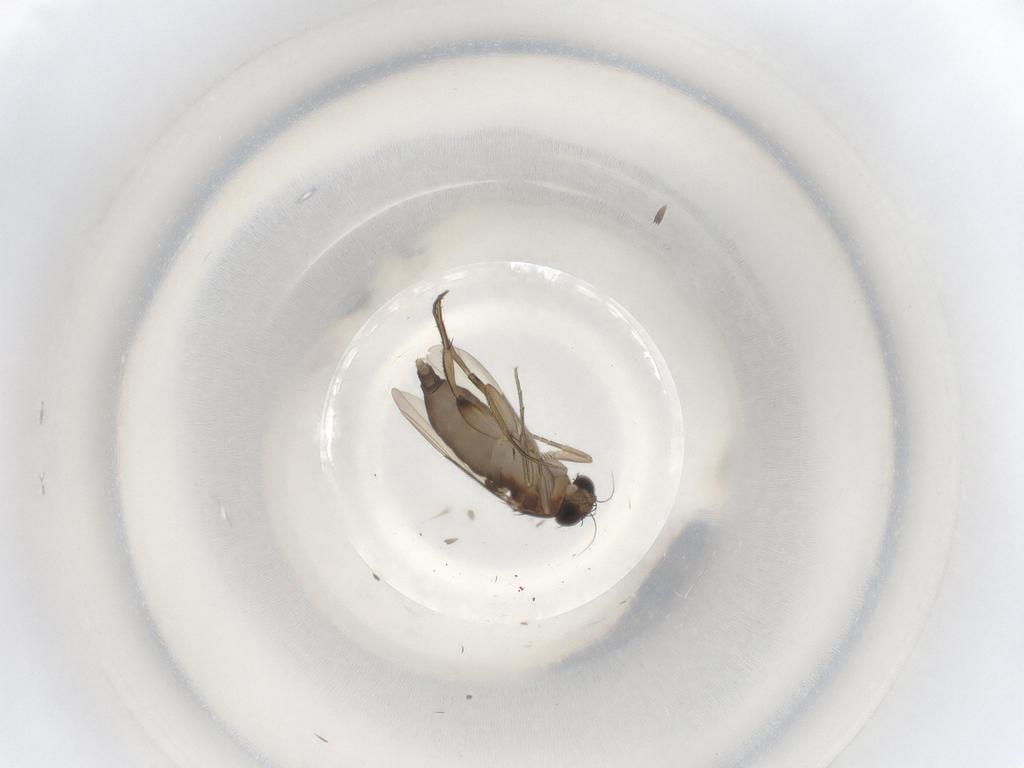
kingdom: Animalia
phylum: Arthropoda
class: Insecta
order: Diptera
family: Phoridae
